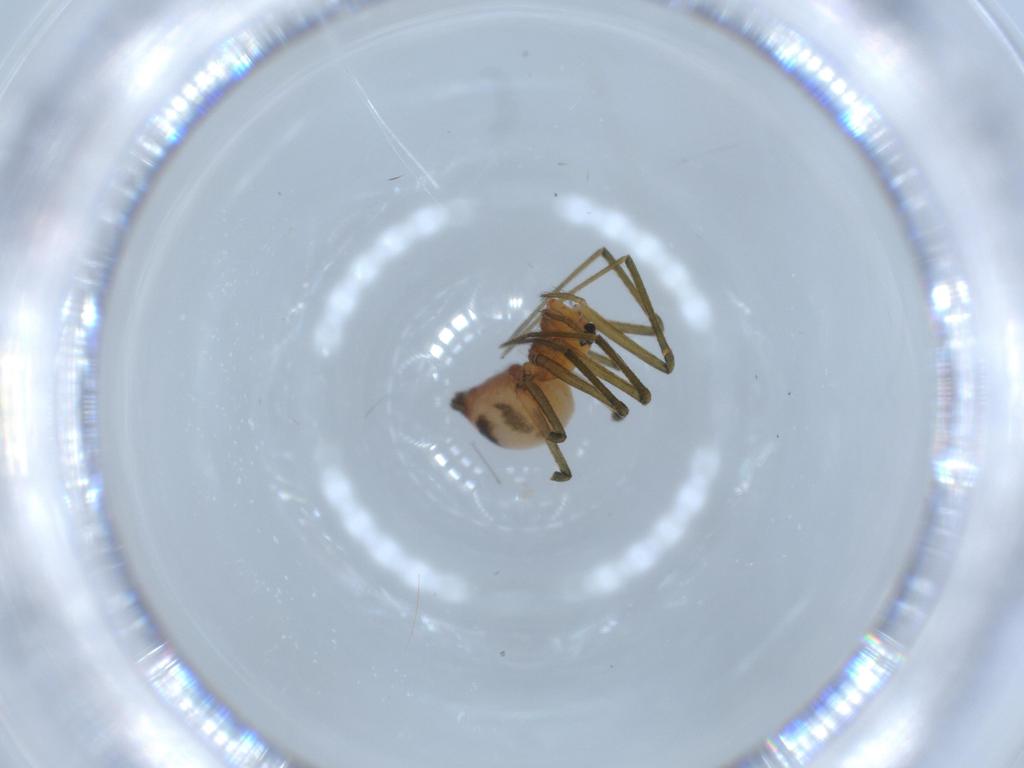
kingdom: Animalia
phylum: Arthropoda
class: Arachnida
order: Araneae
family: Linyphiidae
